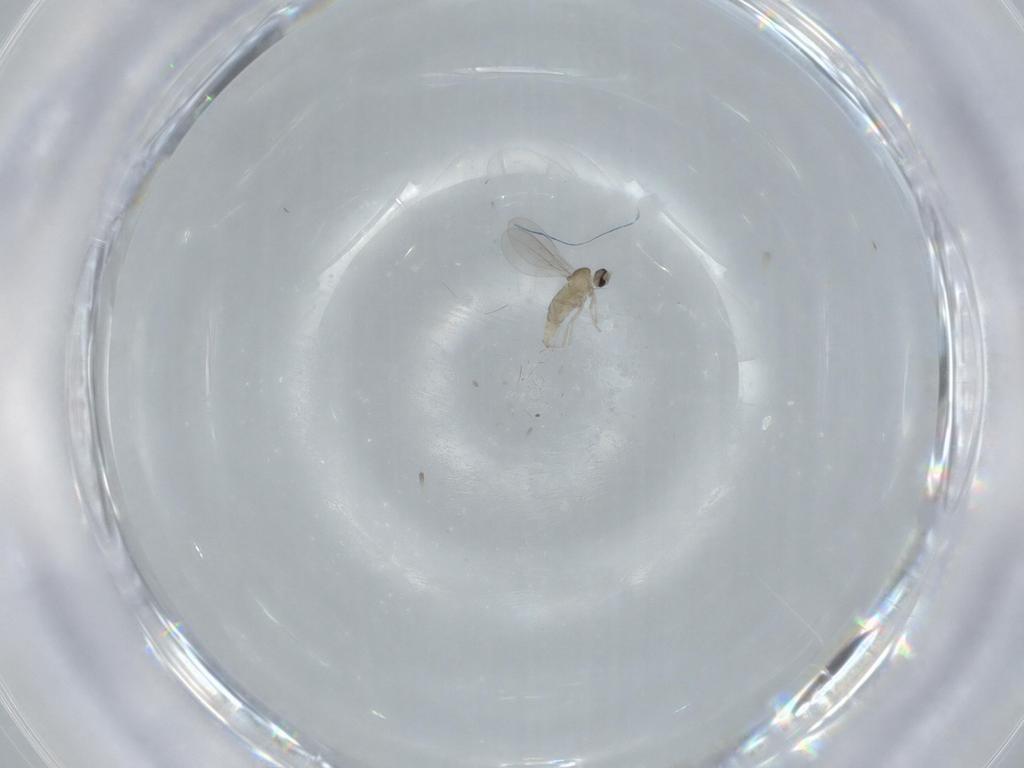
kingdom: Animalia
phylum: Arthropoda
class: Insecta
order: Diptera
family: Cecidomyiidae
